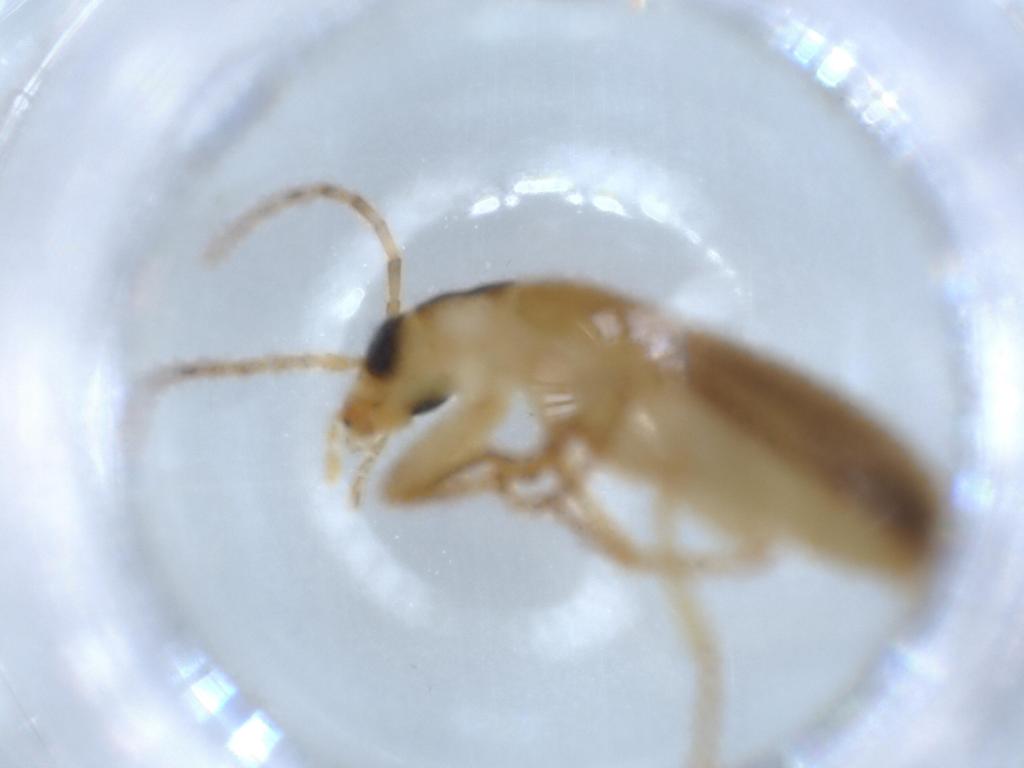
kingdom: Animalia
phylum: Arthropoda
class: Insecta
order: Coleoptera
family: Oedemeridae
